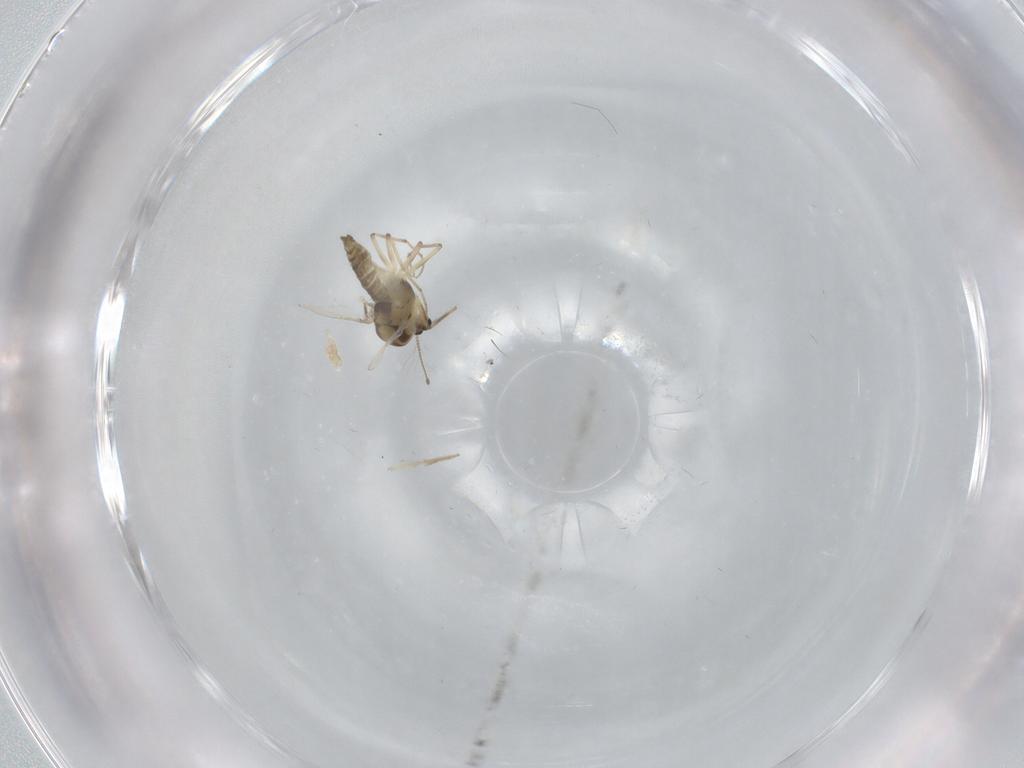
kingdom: Animalia
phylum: Arthropoda
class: Insecta
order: Diptera
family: Chironomidae
